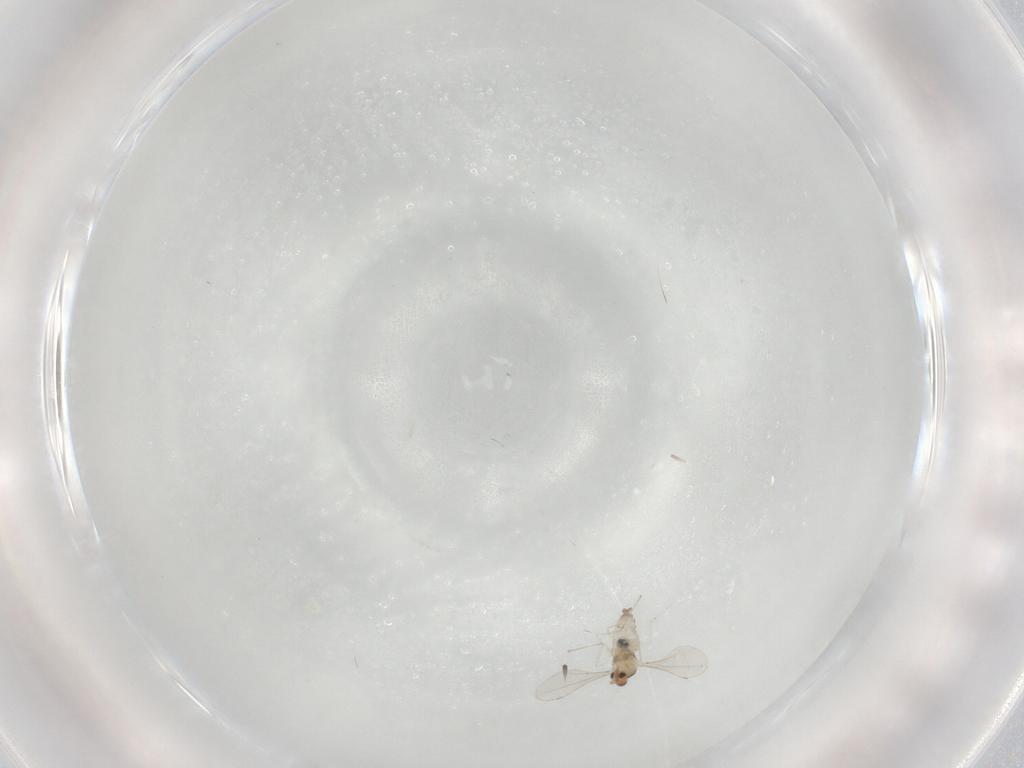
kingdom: Animalia
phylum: Arthropoda
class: Insecta
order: Diptera
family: Cecidomyiidae
